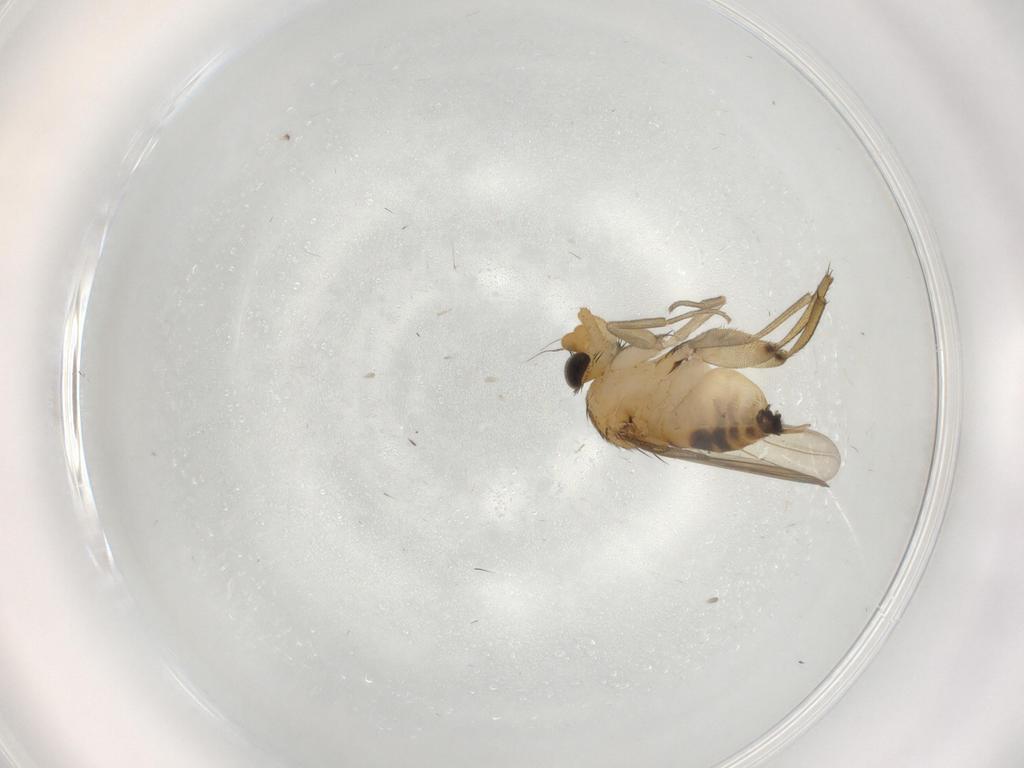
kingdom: Animalia
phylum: Arthropoda
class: Insecta
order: Diptera
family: Phoridae
